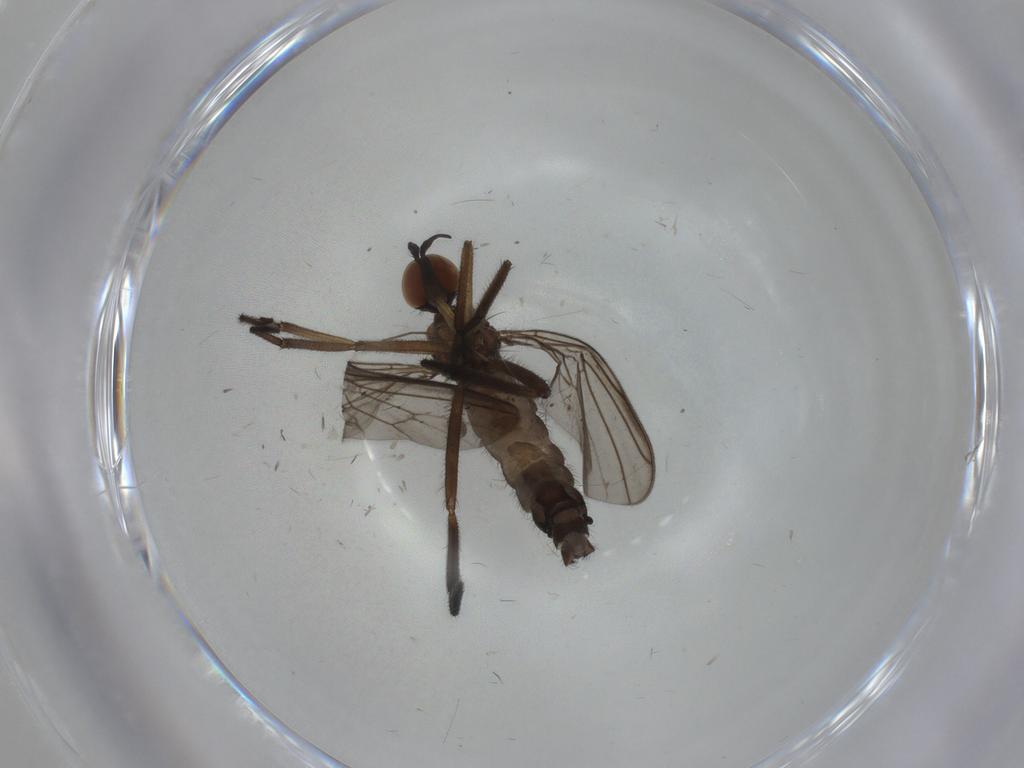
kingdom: Animalia
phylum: Arthropoda
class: Insecta
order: Diptera
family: Empididae
